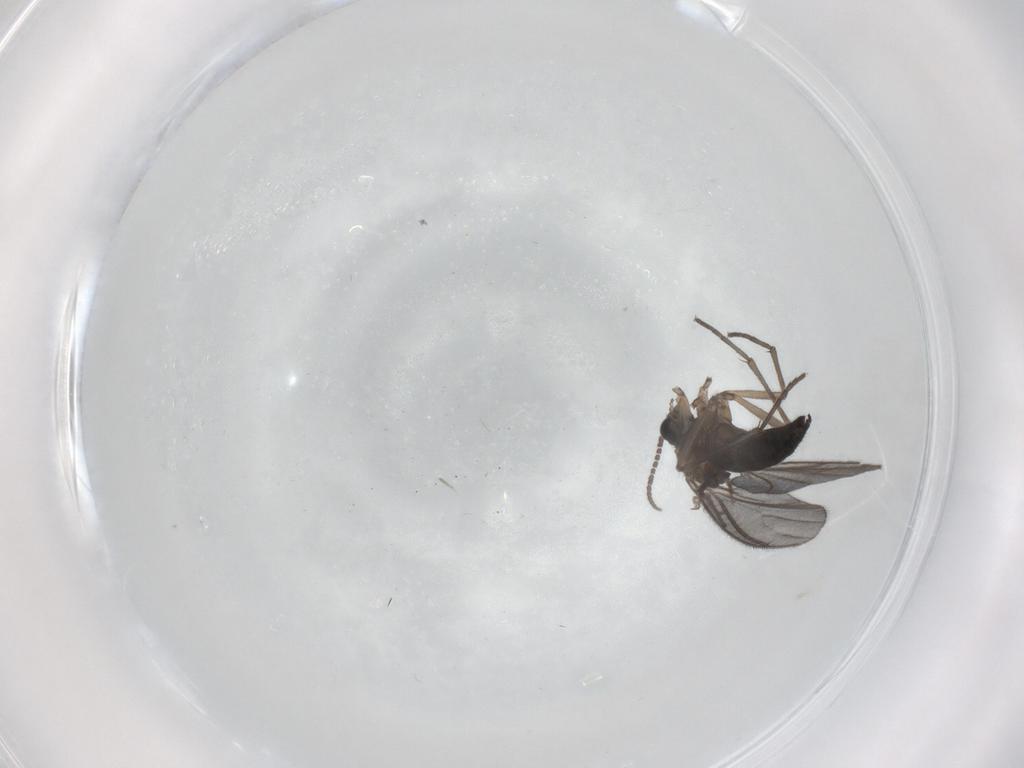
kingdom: Animalia
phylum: Arthropoda
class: Insecta
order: Diptera
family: Sciaridae
